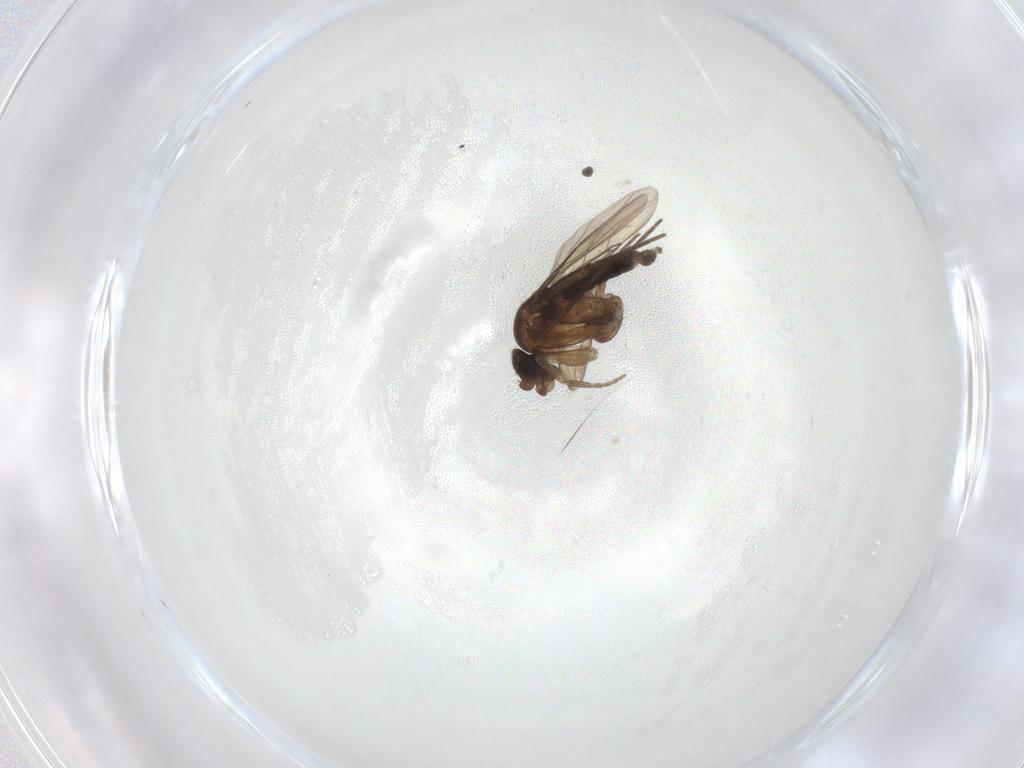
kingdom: Animalia
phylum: Arthropoda
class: Insecta
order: Diptera
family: Phoridae
